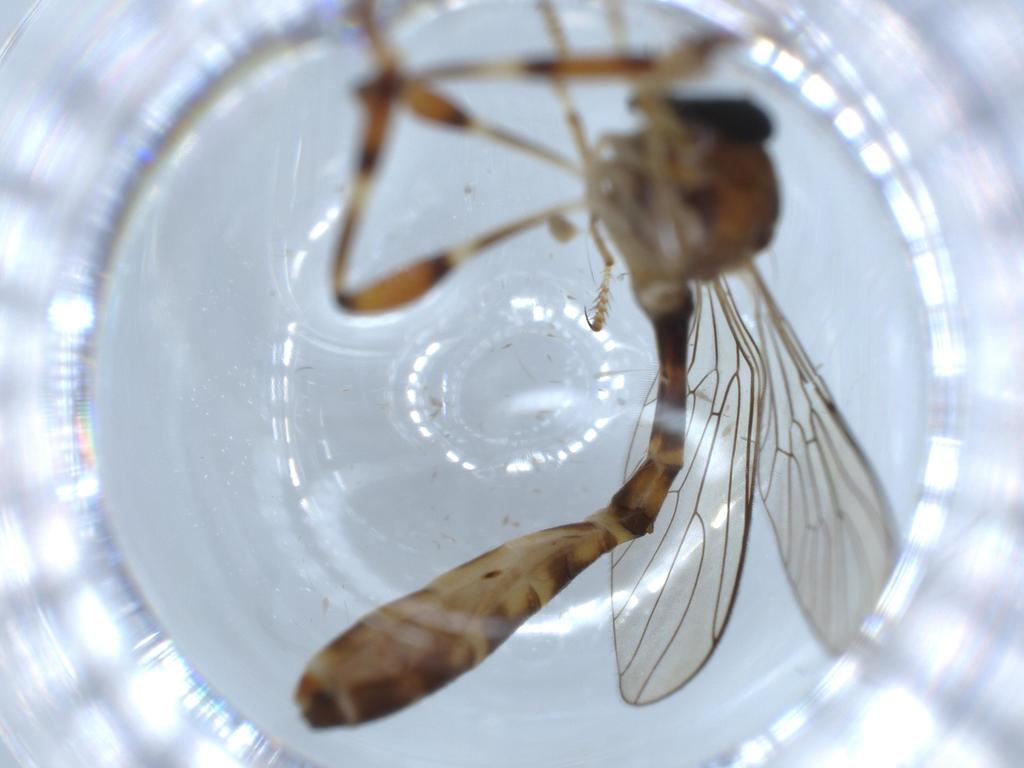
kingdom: Animalia
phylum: Arthropoda
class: Insecta
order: Diptera
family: Cecidomyiidae
